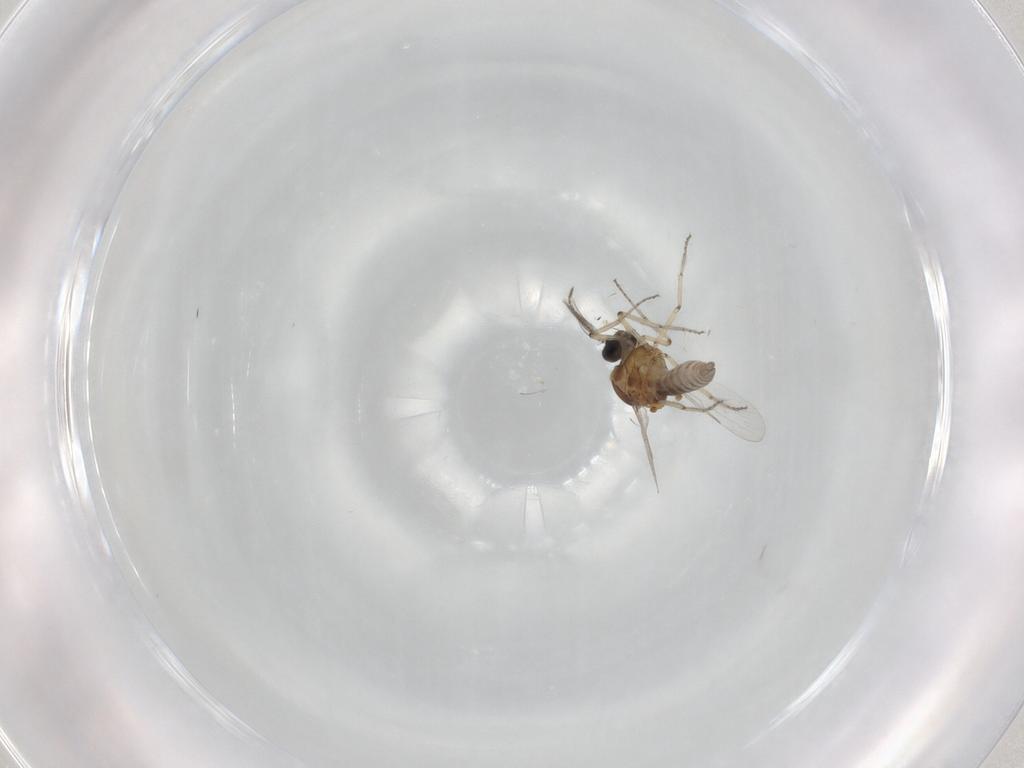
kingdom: Animalia
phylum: Arthropoda
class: Insecta
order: Diptera
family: Ceratopogonidae
